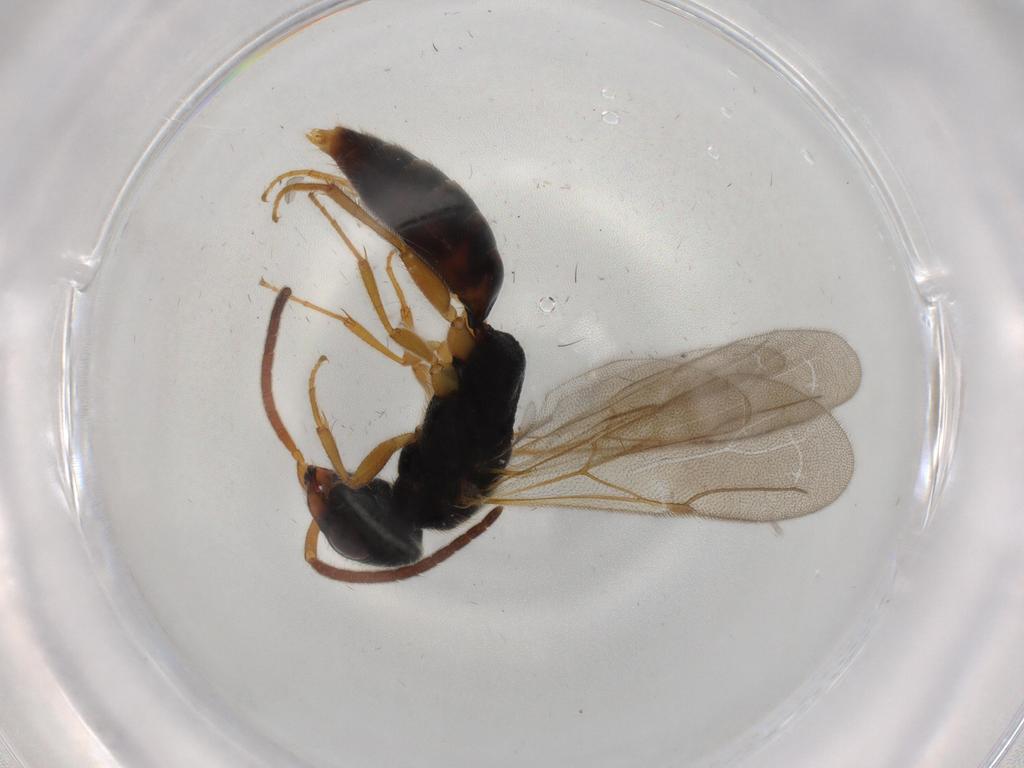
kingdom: Animalia
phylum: Arthropoda
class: Insecta
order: Hymenoptera
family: Bethylidae
